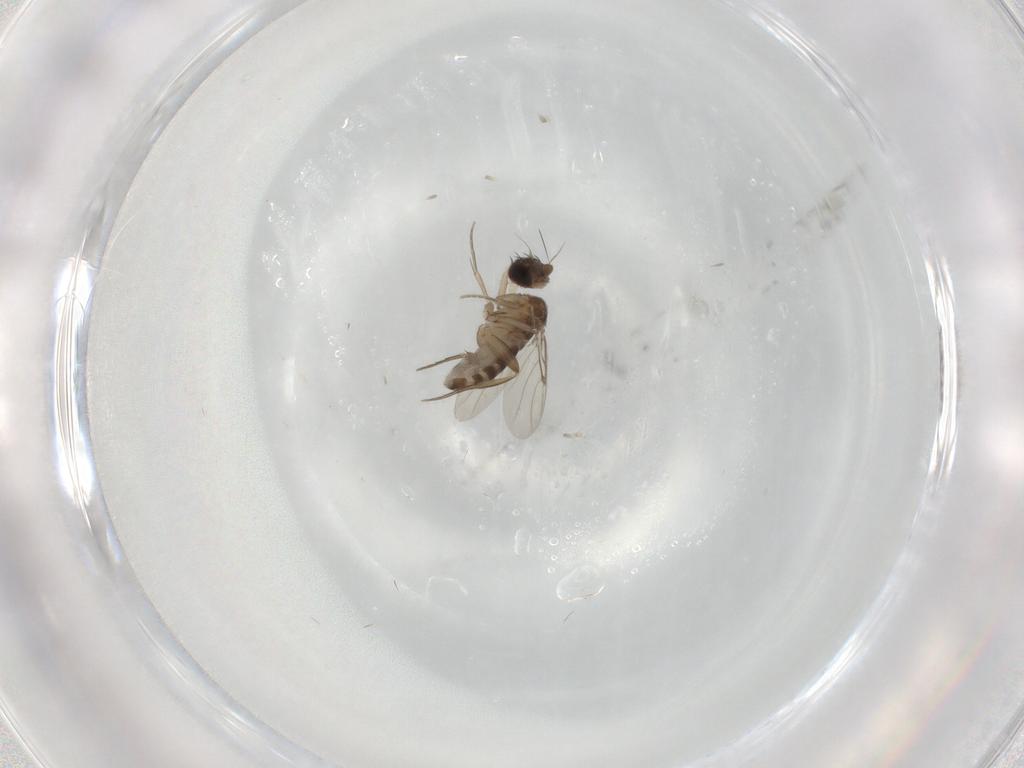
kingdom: Animalia
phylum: Arthropoda
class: Insecta
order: Diptera
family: Phoridae
